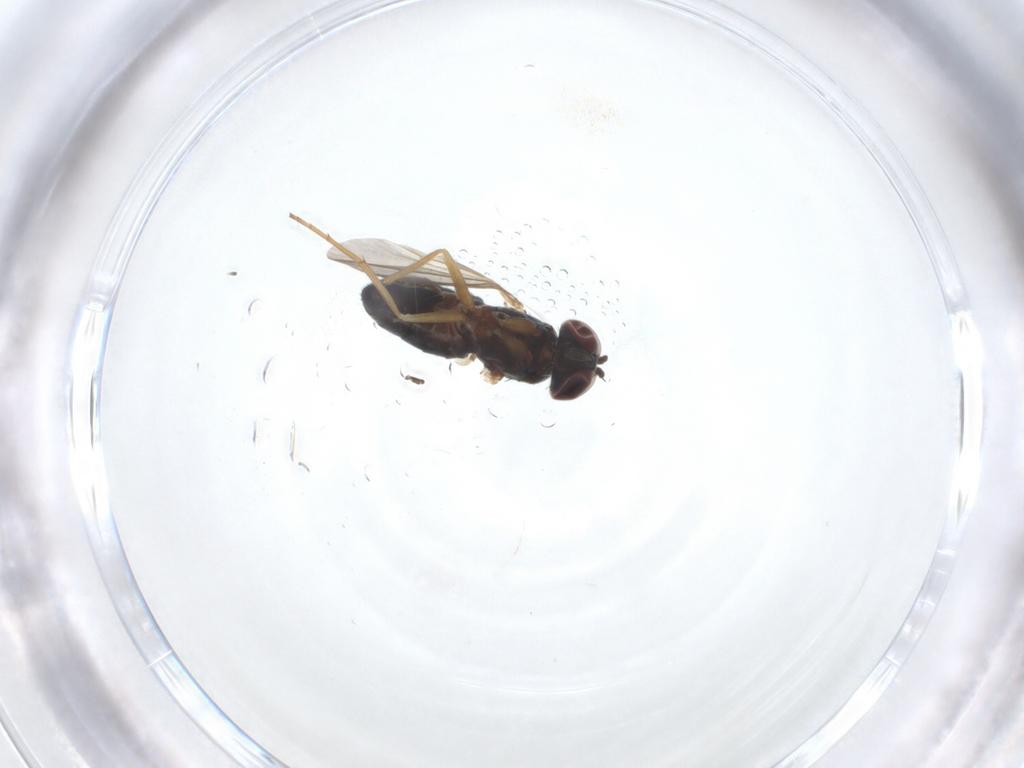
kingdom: Animalia
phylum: Arthropoda
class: Insecta
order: Diptera
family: Dolichopodidae
